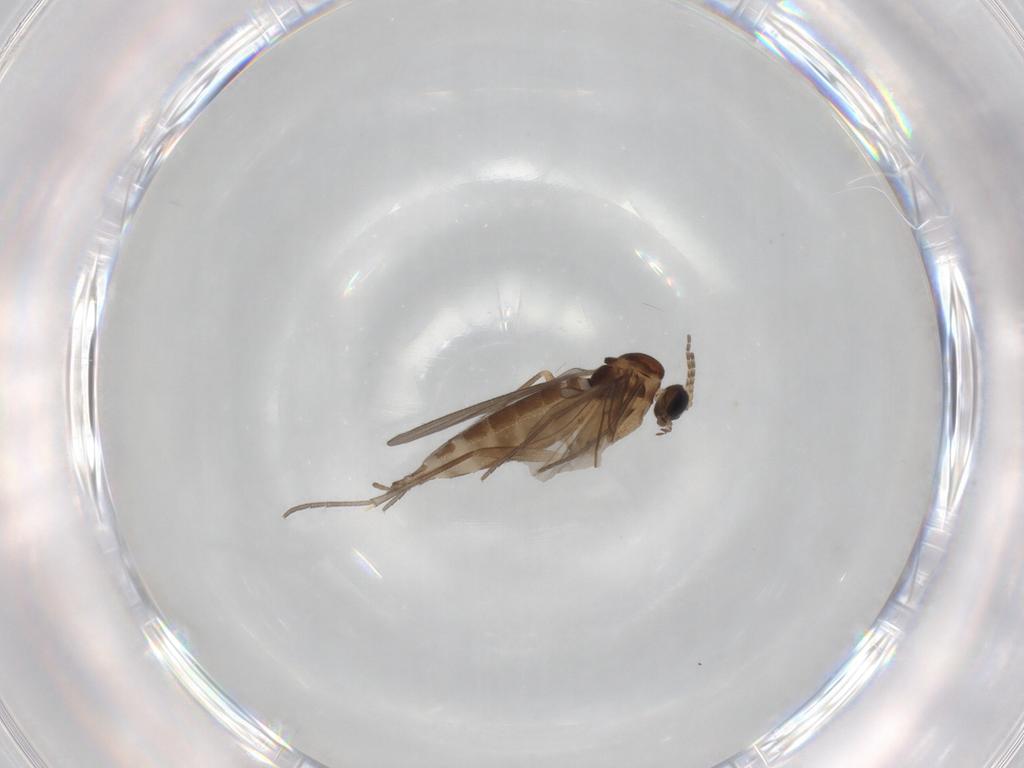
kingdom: Animalia
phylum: Arthropoda
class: Insecta
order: Diptera
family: Sciaridae
